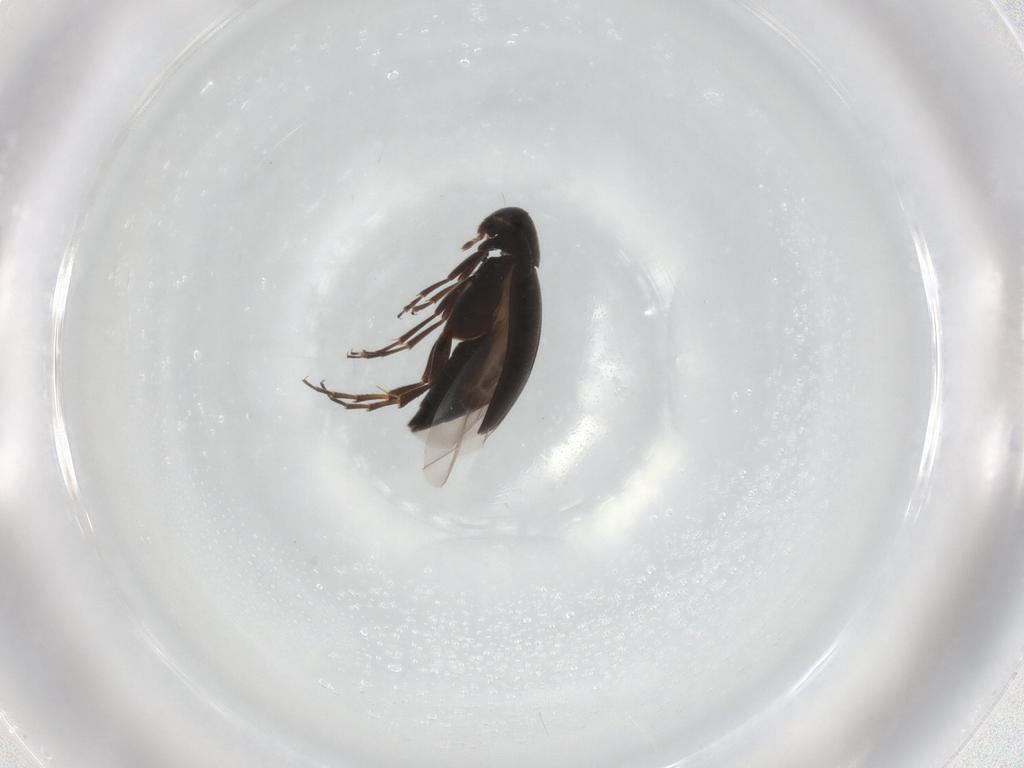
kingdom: Animalia
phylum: Arthropoda
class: Insecta
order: Coleoptera
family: Scraptiidae
